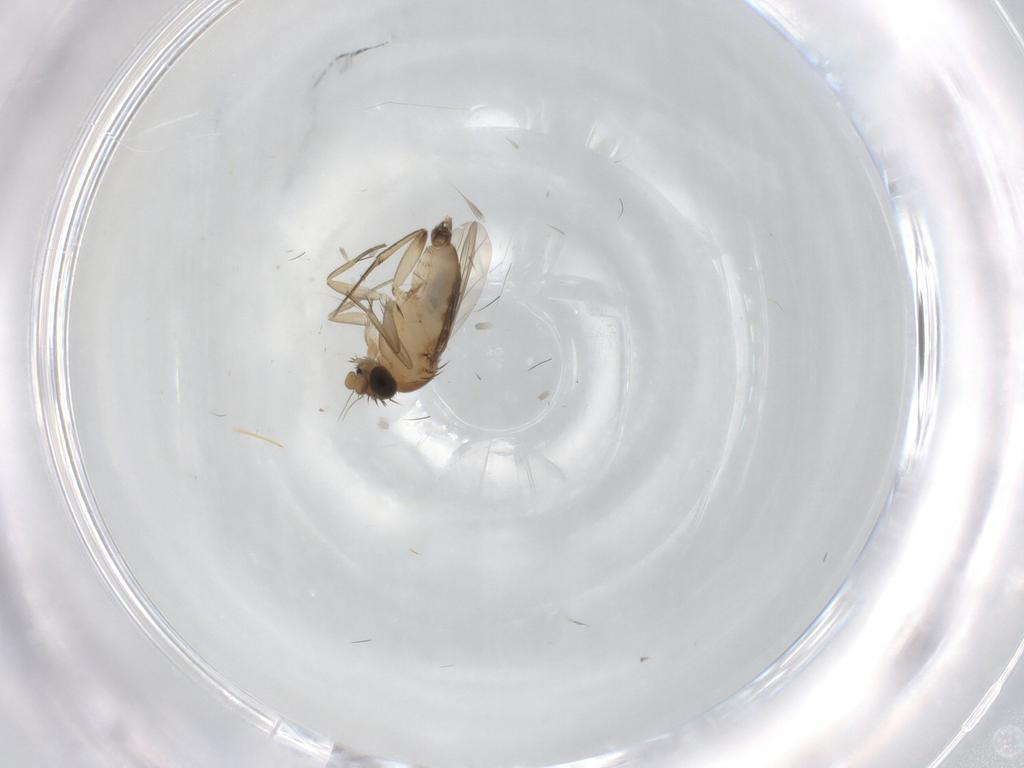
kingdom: Animalia
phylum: Arthropoda
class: Insecta
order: Diptera
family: Phoridae
